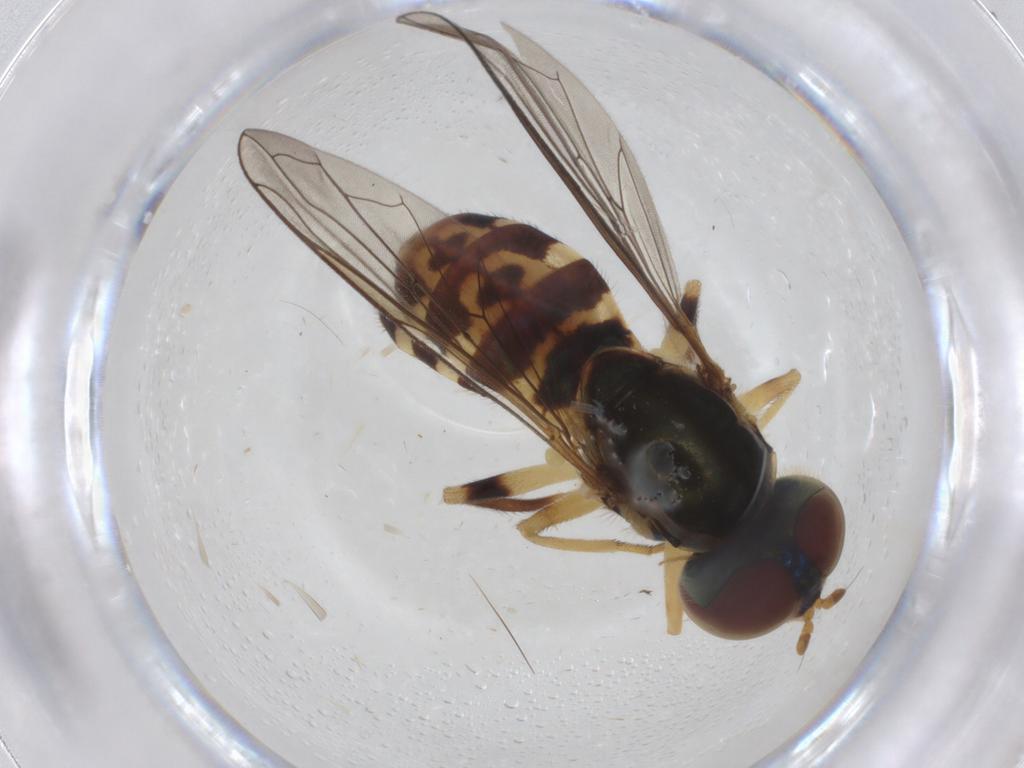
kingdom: Animalia
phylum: Arthropoda
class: Insecta
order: Diptera
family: Syrphidae
